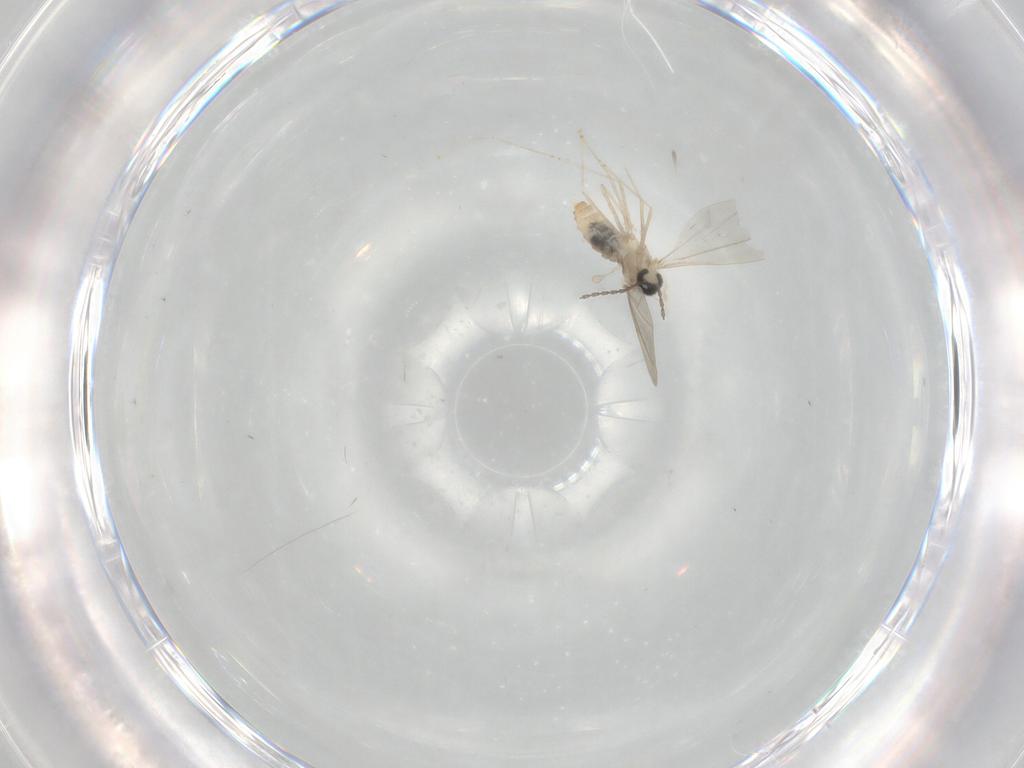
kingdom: Animalia
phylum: Arthropoda
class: Insecta
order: Diptera
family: Cecidomyiidae
